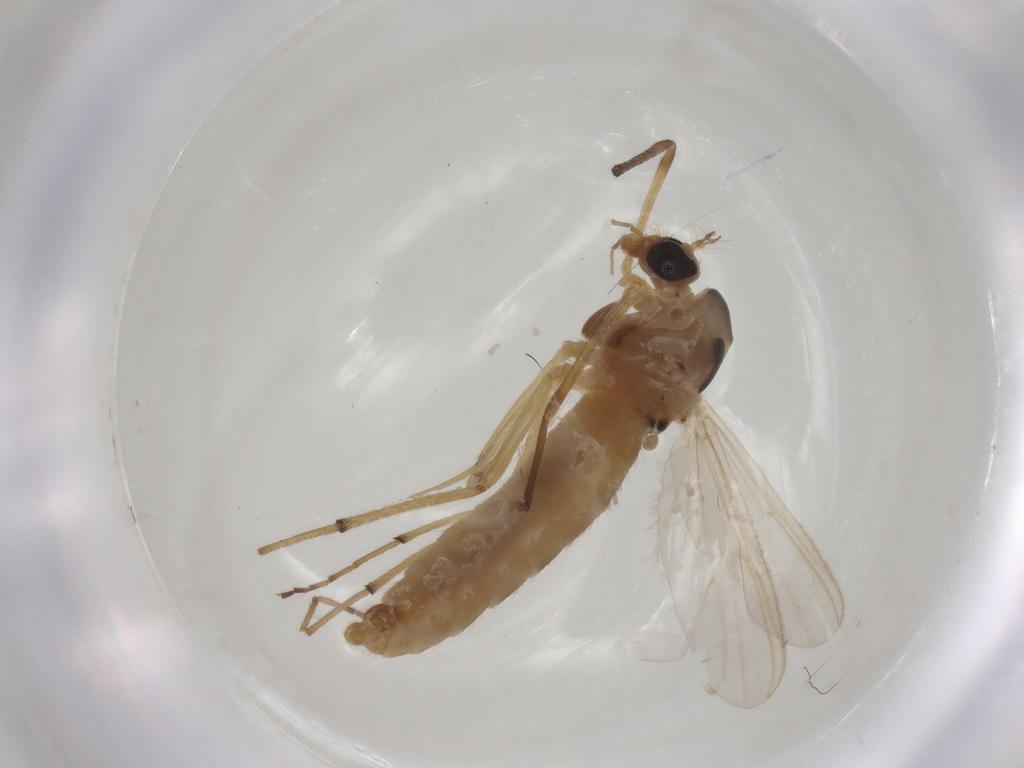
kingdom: Animalia
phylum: Arthropoda
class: Insecta
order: Diptera
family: Chironomidae
